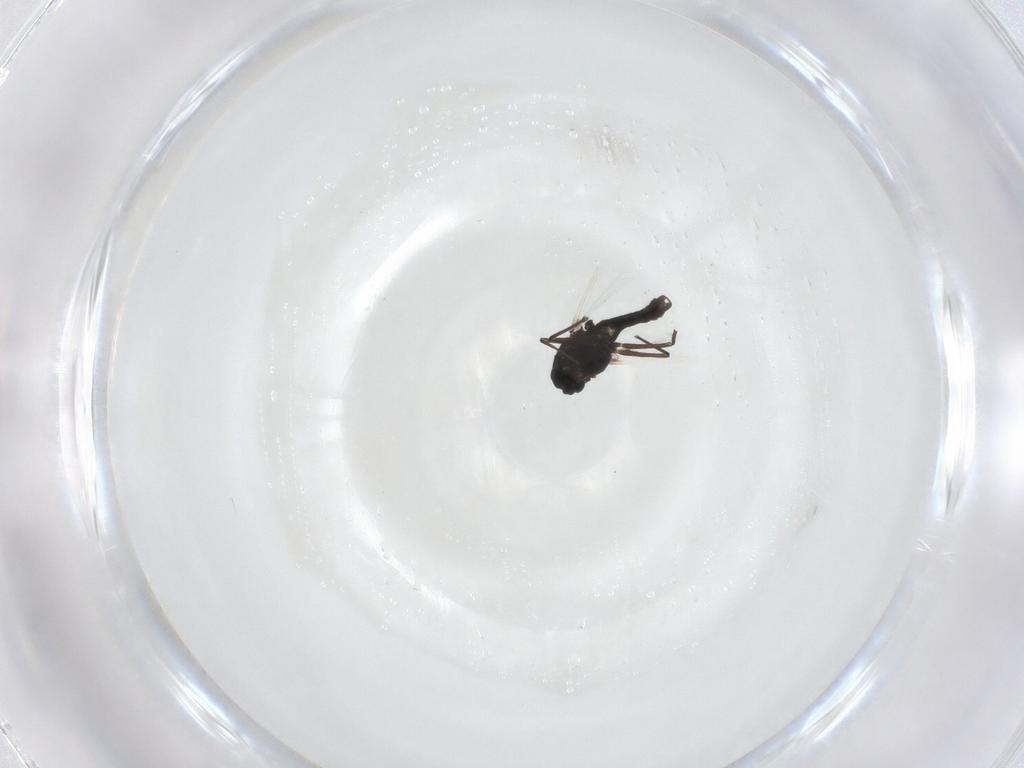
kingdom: Animalia
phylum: Arthropoda
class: Insecta
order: Diptera
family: Chironomidae
